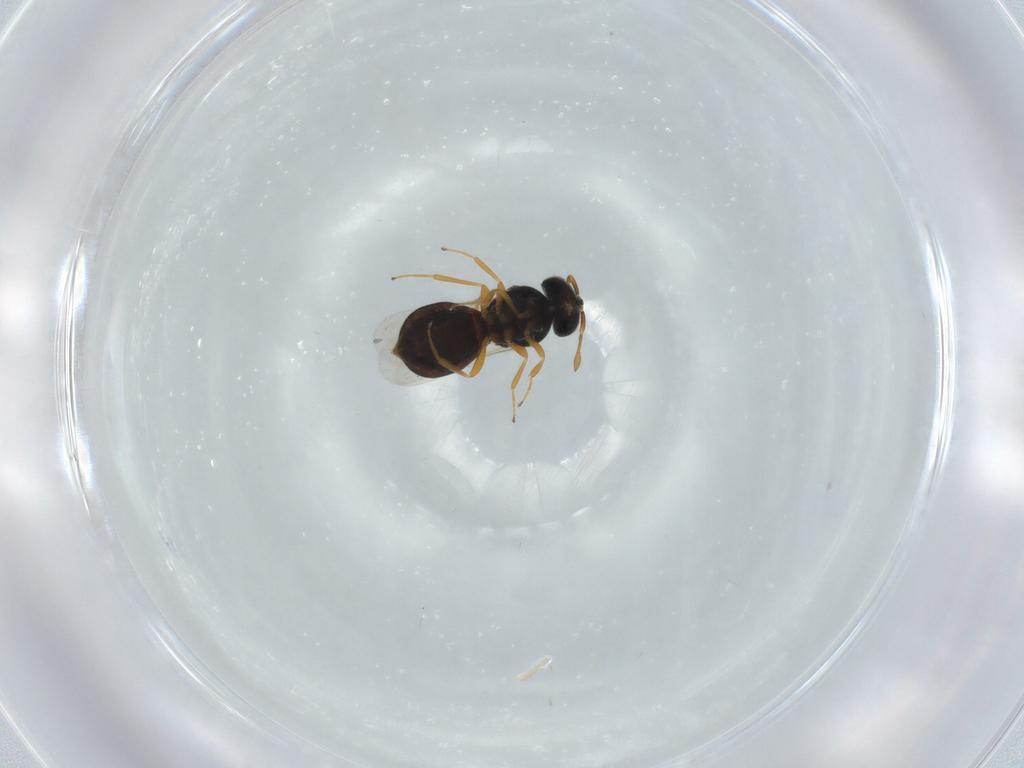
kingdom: Animalia
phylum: Arthropoda
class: Insecta
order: Hymenoptera
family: Scelionidae
